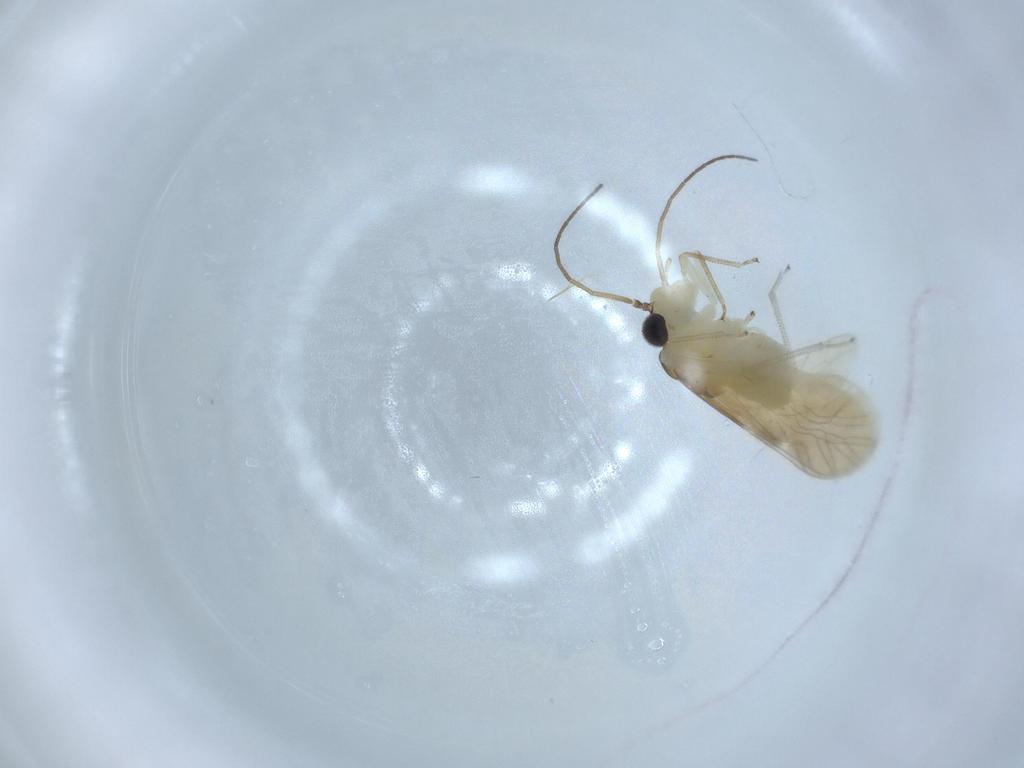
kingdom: Animalia
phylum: Arthropoda
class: Insecta
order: Psocodea
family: Caeciliusidae
